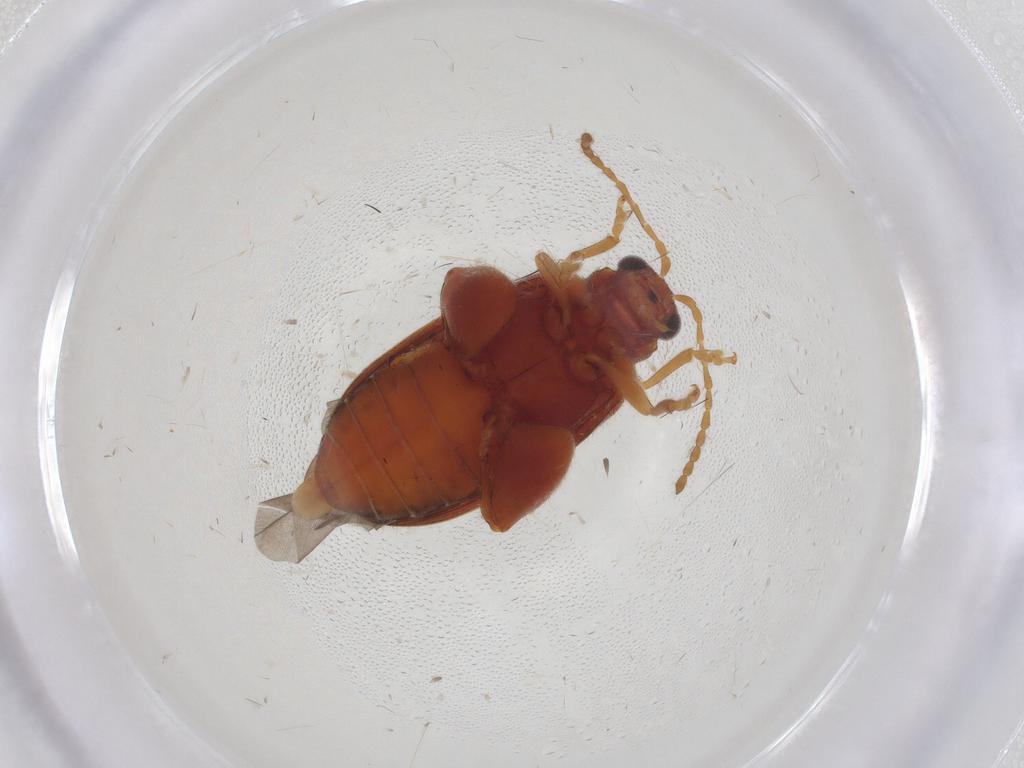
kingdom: Animalia
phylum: Arthropoda
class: Insecta
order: Coleoptera
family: Chrysomelidae
